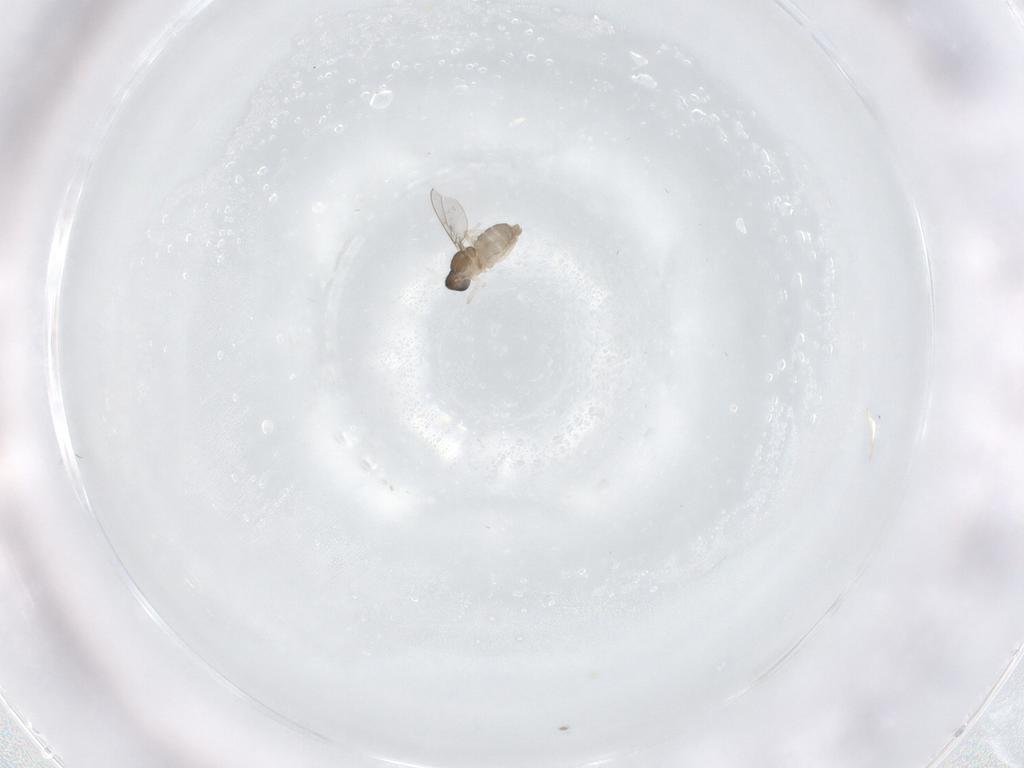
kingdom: Animalia
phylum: Arthropoda
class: Insecta
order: Diptera
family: Cecidomyiidae
